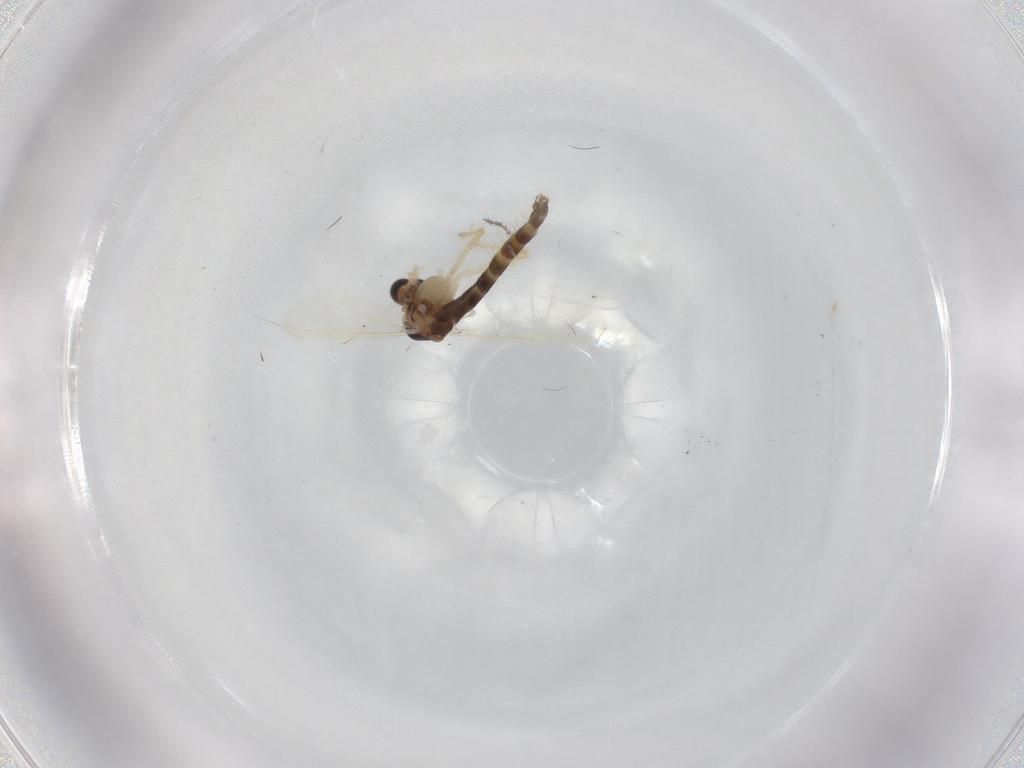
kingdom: Animalia
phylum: Arthropoda
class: Insecta
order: Diptera
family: Chironomidae
